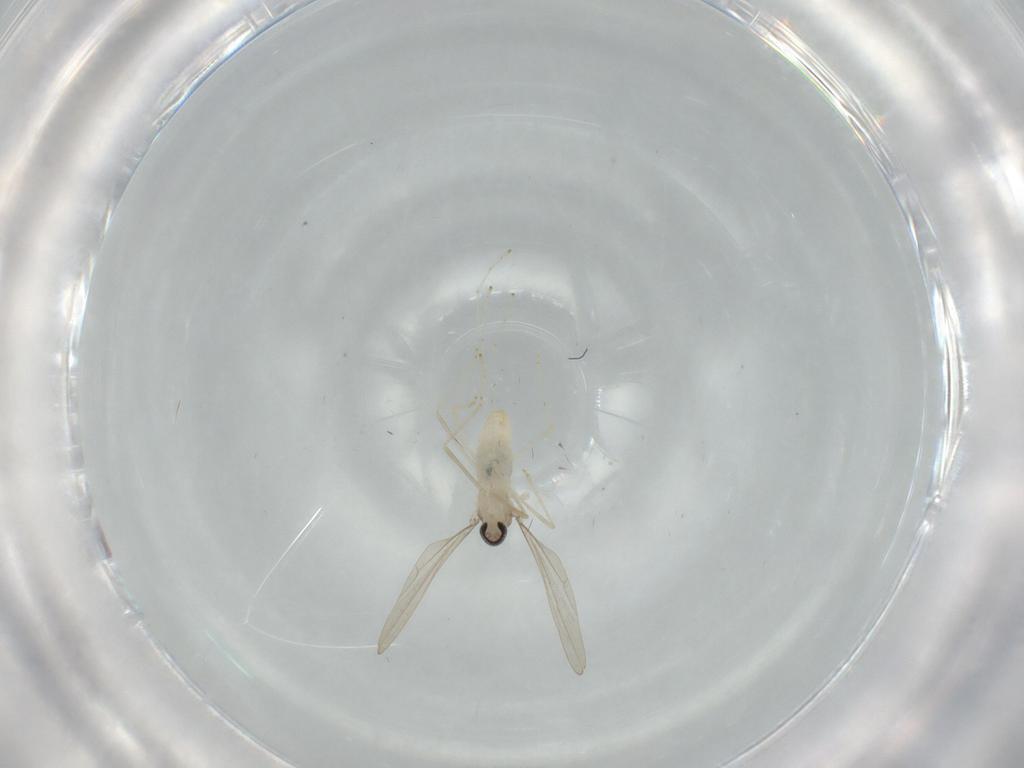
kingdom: Animalia
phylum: Arthropoda
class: Insecta
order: Diptera
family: Cecidomyiidae
